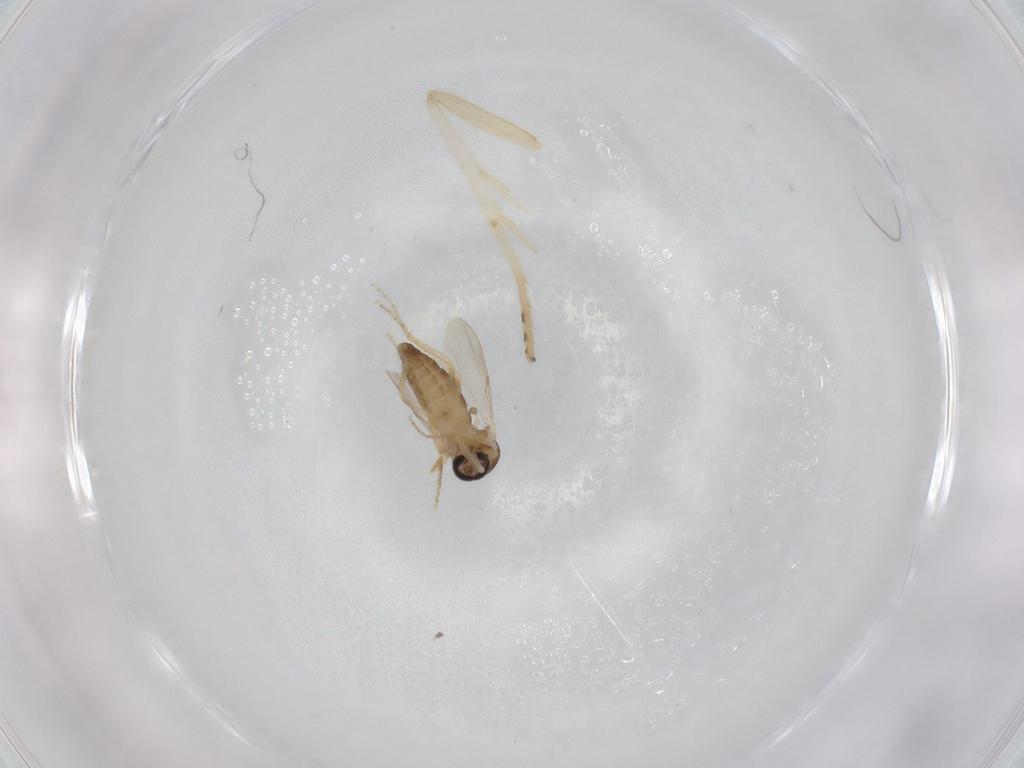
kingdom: Animalia
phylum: Arthropoda
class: Insecta
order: Diptera
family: Ceratopogonidae
